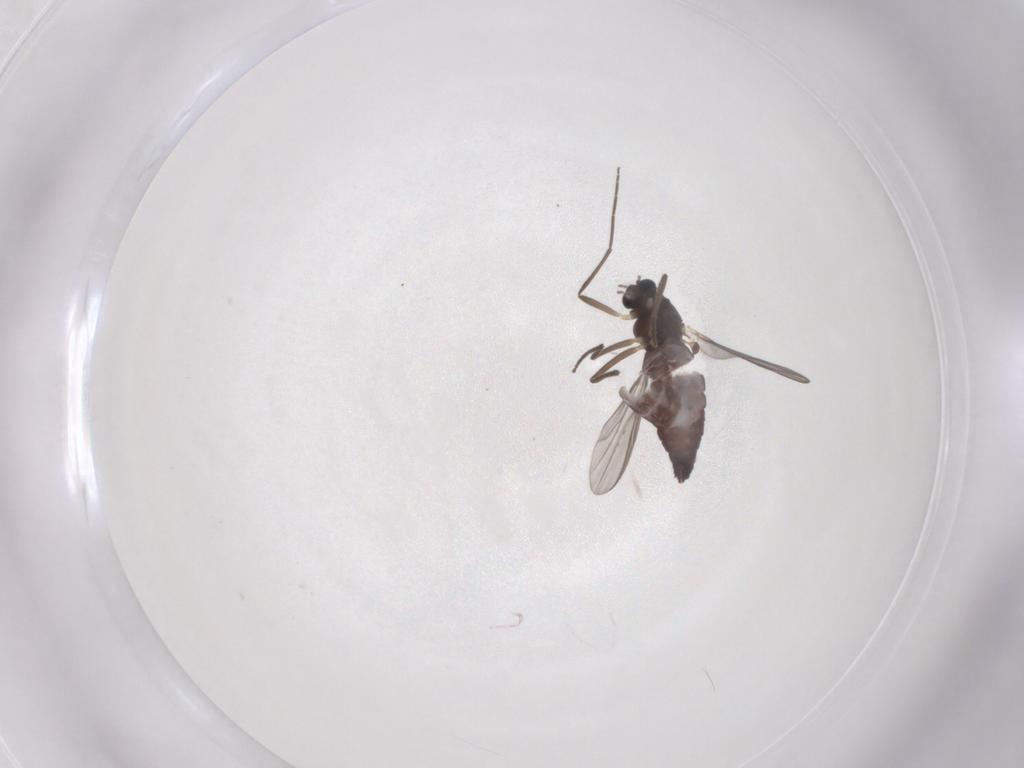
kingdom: Animalia
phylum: Arthropoda
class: Insecta
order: Diptera
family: Chironomidae
